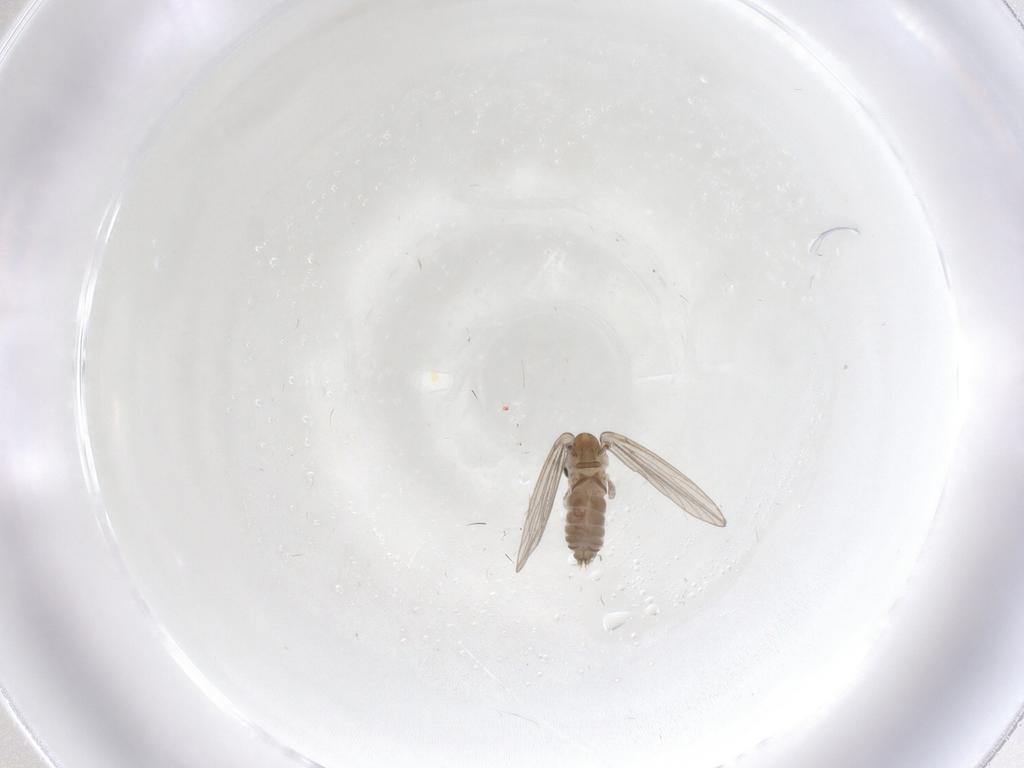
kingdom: Animalia
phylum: Arthropoda
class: Insecta
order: Diptera
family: Psychodidae
